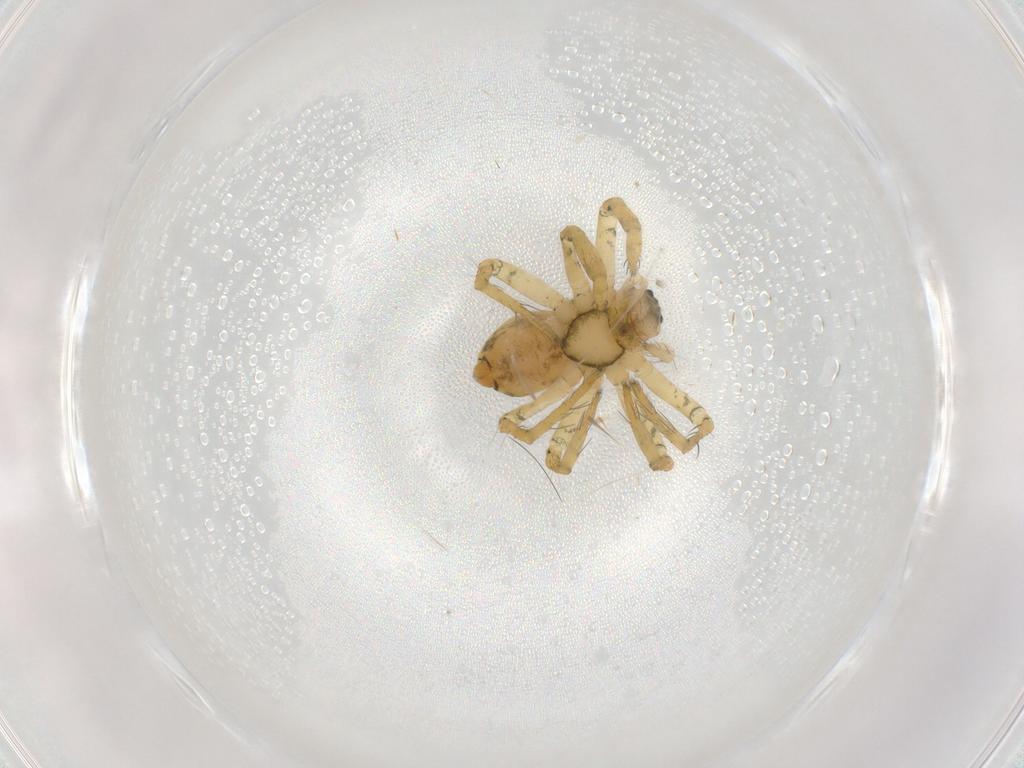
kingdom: Animalia
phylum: Arthropoda
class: Arachnida
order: Araneae
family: Pisauridae
